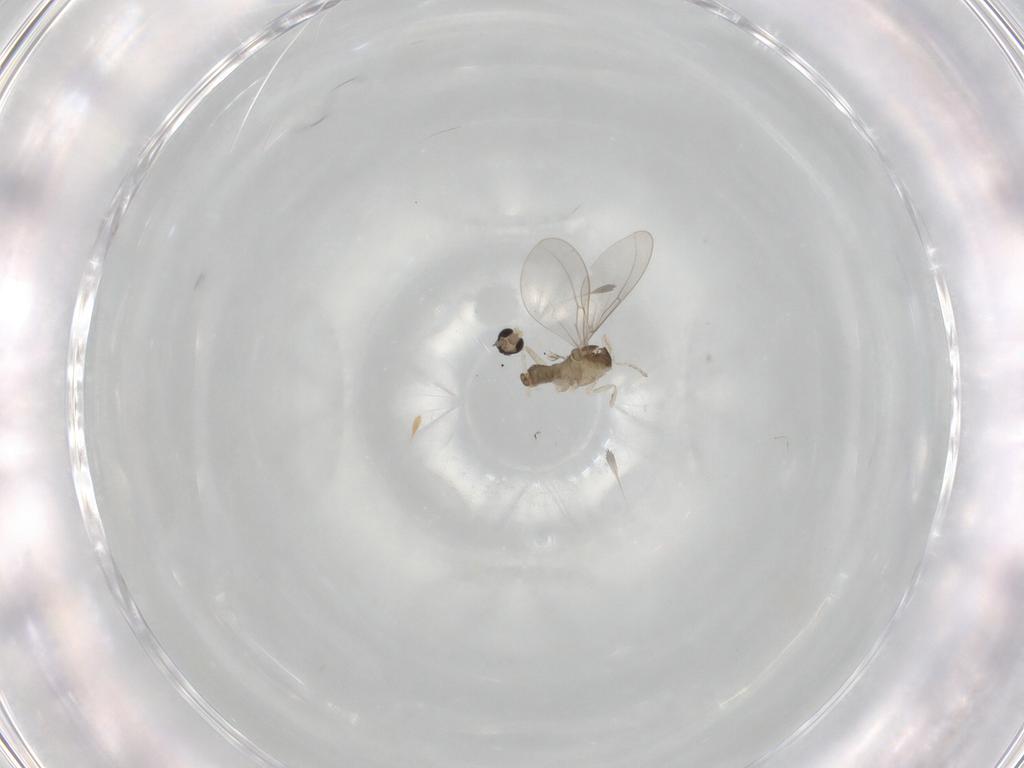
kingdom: Animalia
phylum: Arthropoda
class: Insecta
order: Diptera
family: Cecidomyiidae
